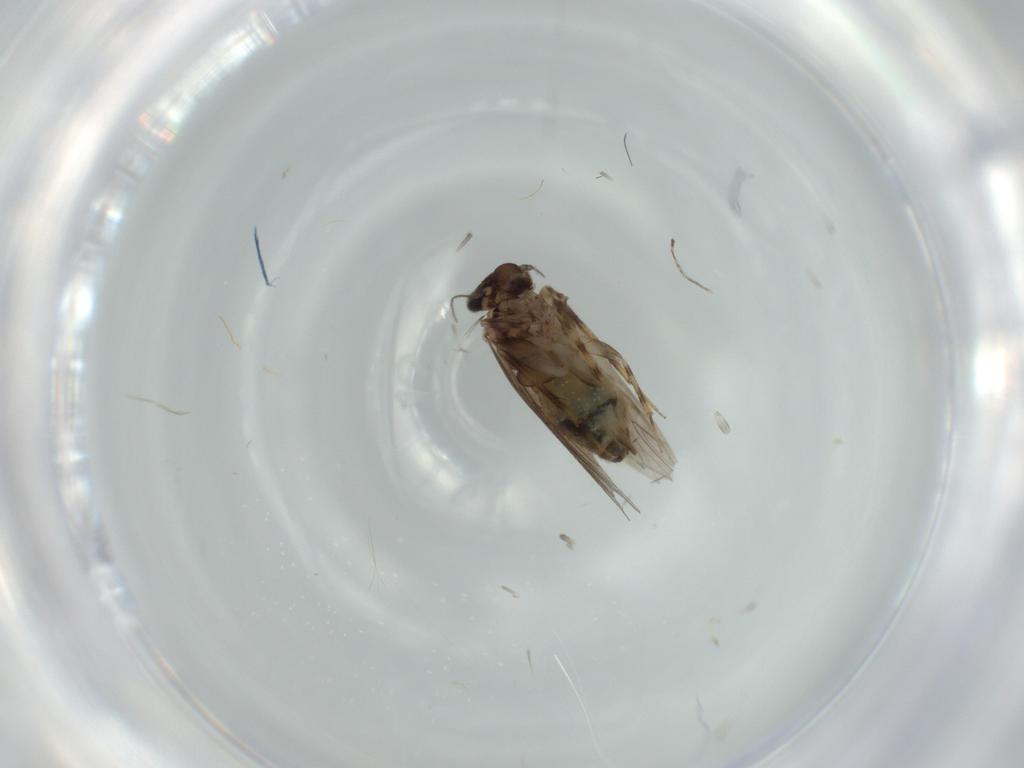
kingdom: Animalia
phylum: Arthropoda
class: Insecta
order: Psocodea
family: Lepidopsocidae
